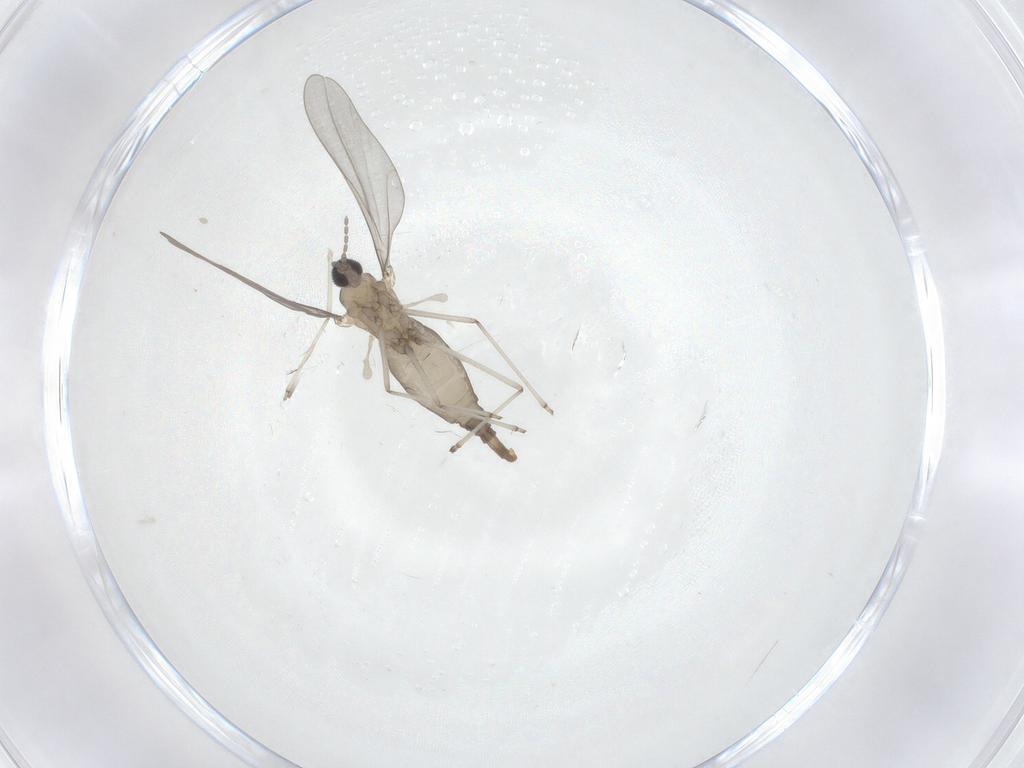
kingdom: Animalia
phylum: Arthropoda
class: Insecta
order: Diptera
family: Cecidomyiidae
